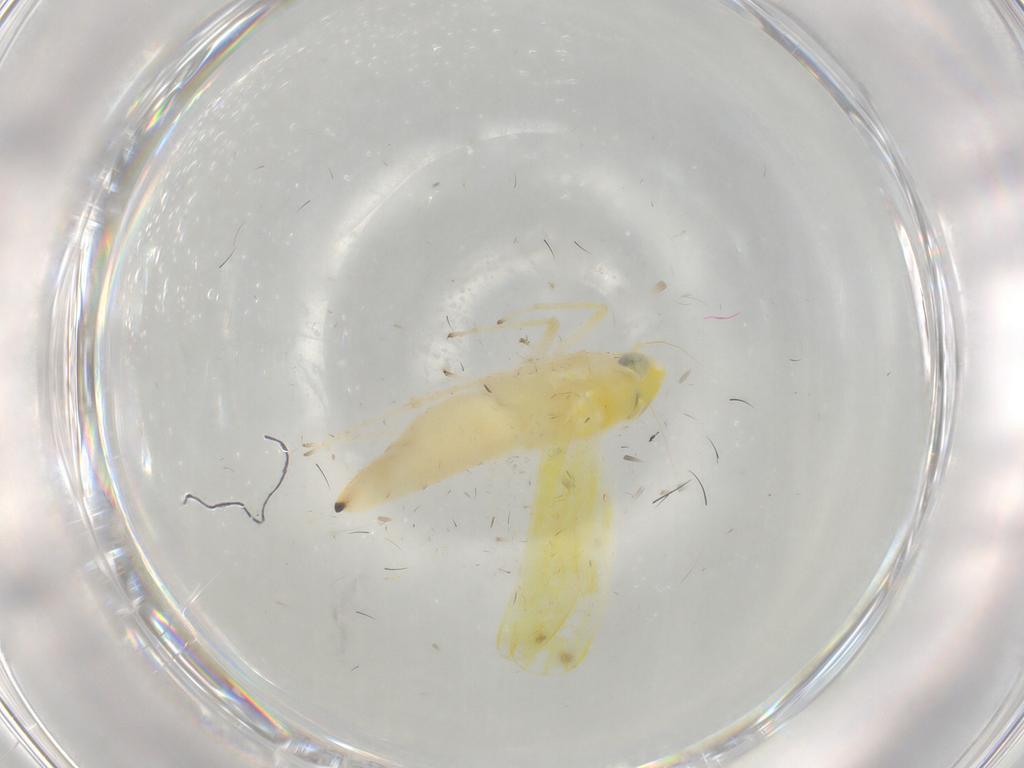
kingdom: Animalia
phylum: Arthropoda
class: Insecta
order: Hemiptera
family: Cicadellidae
